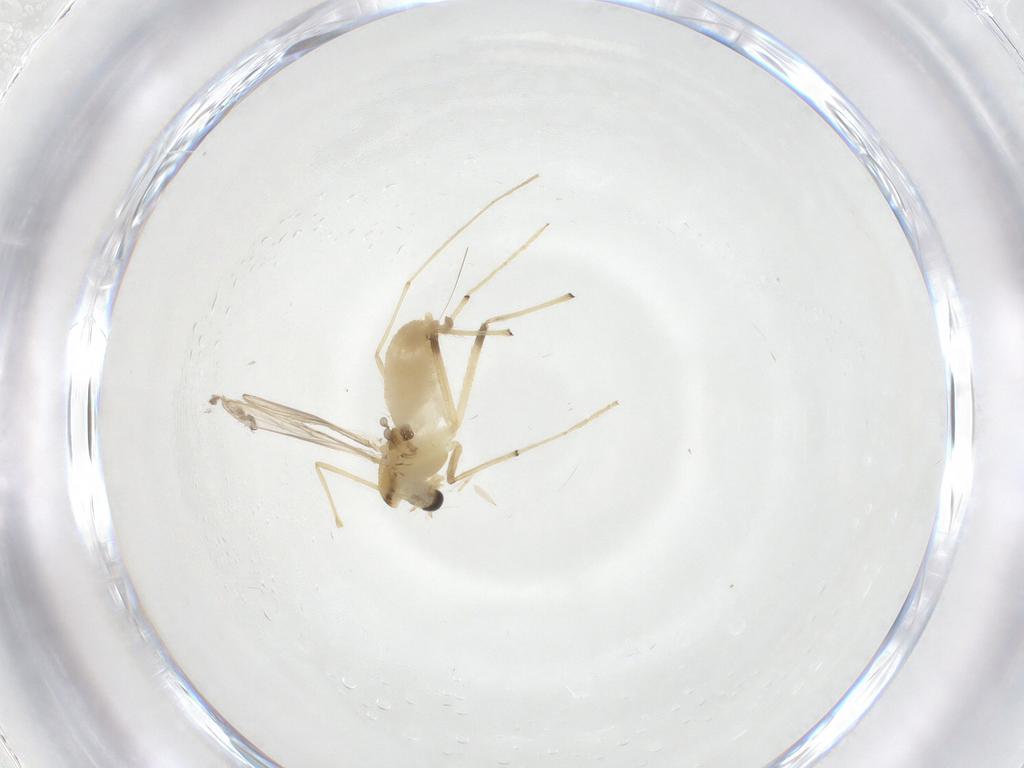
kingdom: Animalia
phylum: Arthropoda
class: Insecta
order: Diptera
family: Chironomidae
